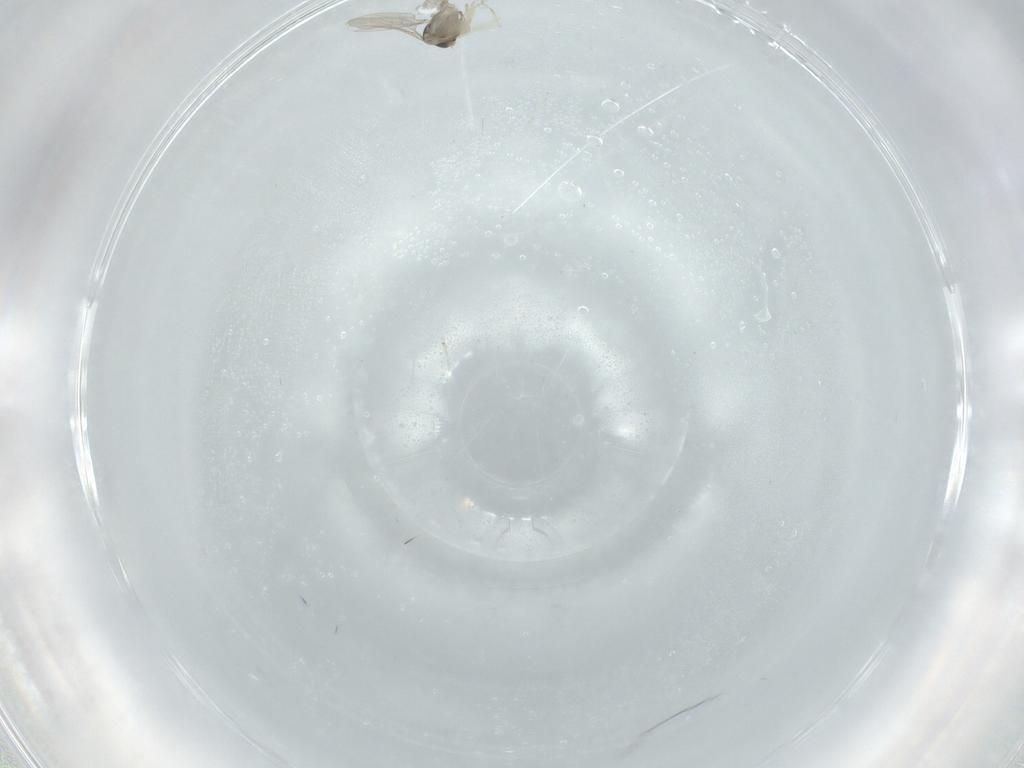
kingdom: Animalia
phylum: Arthropoda
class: Insecta
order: Diptera
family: Cecidomyiidae
